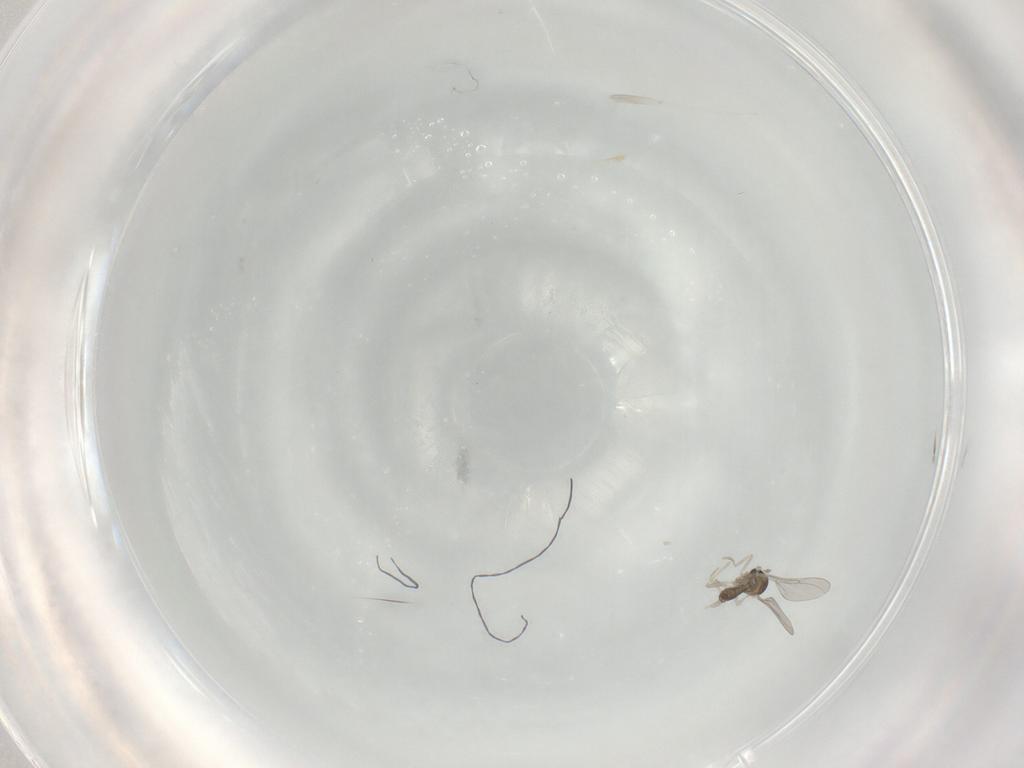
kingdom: Animalia
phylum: Arthropoda
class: Insecta
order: Diptera
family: Cecidomyiidae
